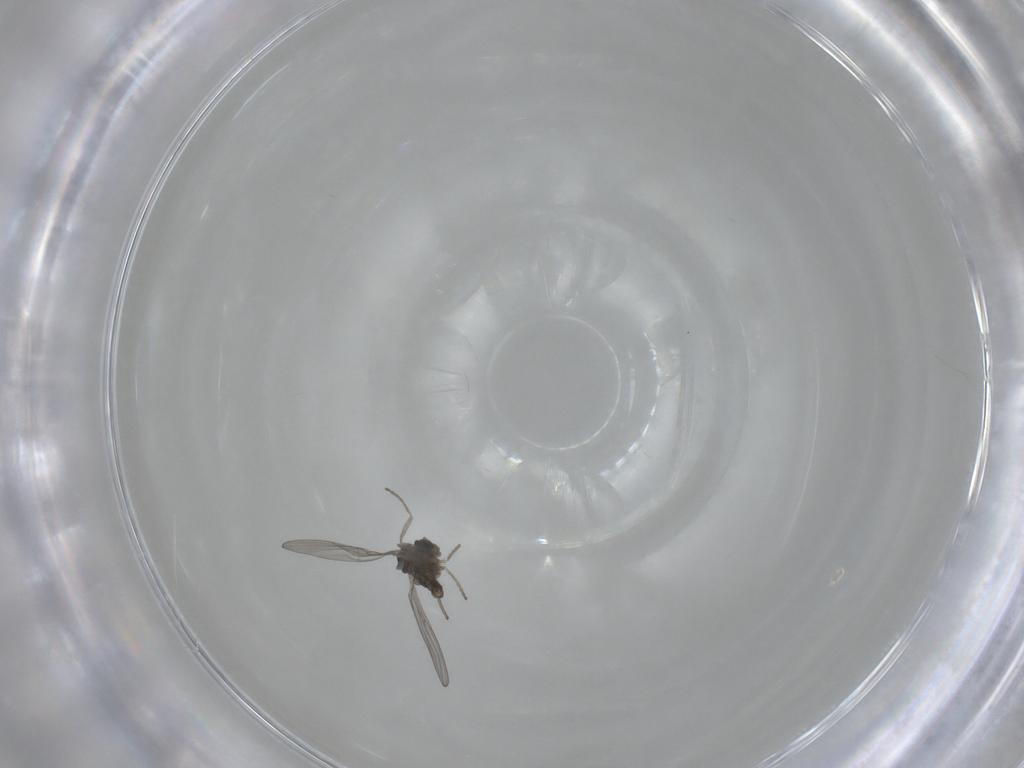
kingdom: Animalia
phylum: Arthropoda
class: Insecta
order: Diptera
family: Cecidomyiidae
